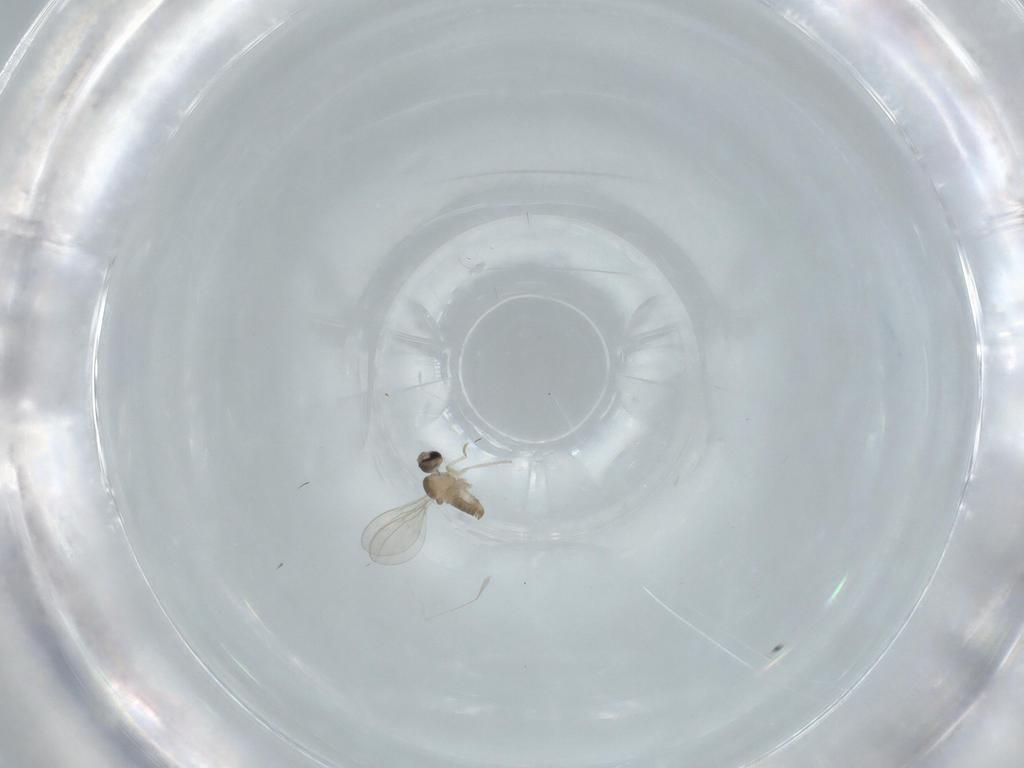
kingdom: Animalia
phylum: Arthropoda
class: Insecta
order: Diptera
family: Cecidomyiidae
